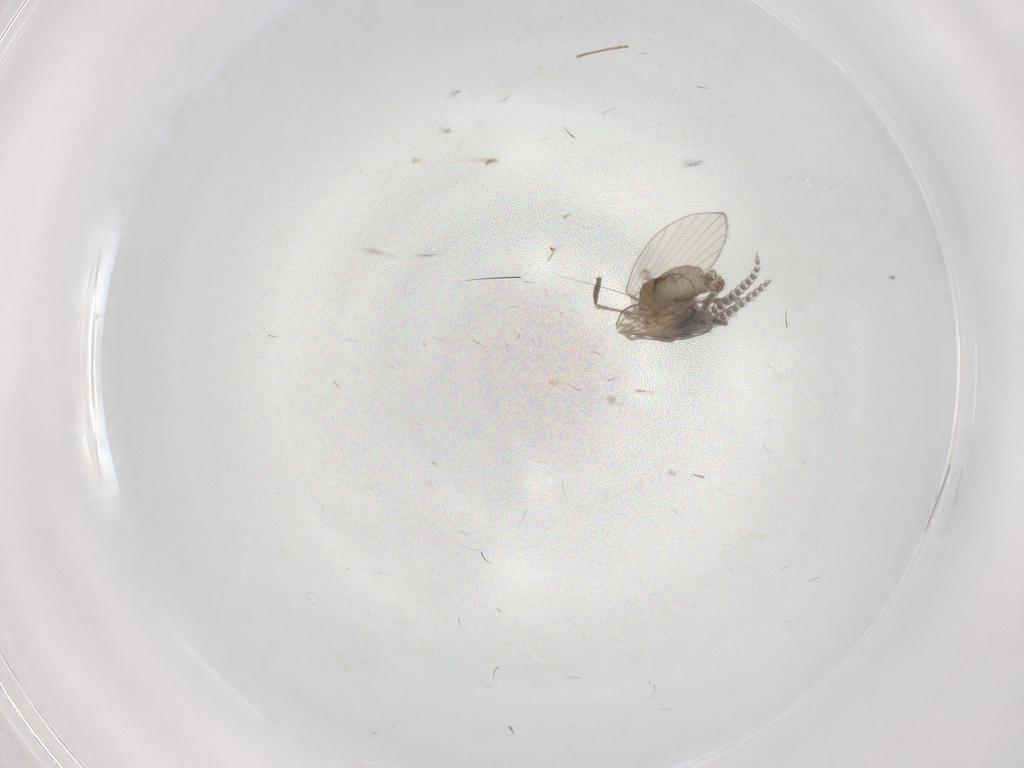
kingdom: Animalia
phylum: Arthropoda
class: Insecta
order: Diptera
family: Psychodidae
